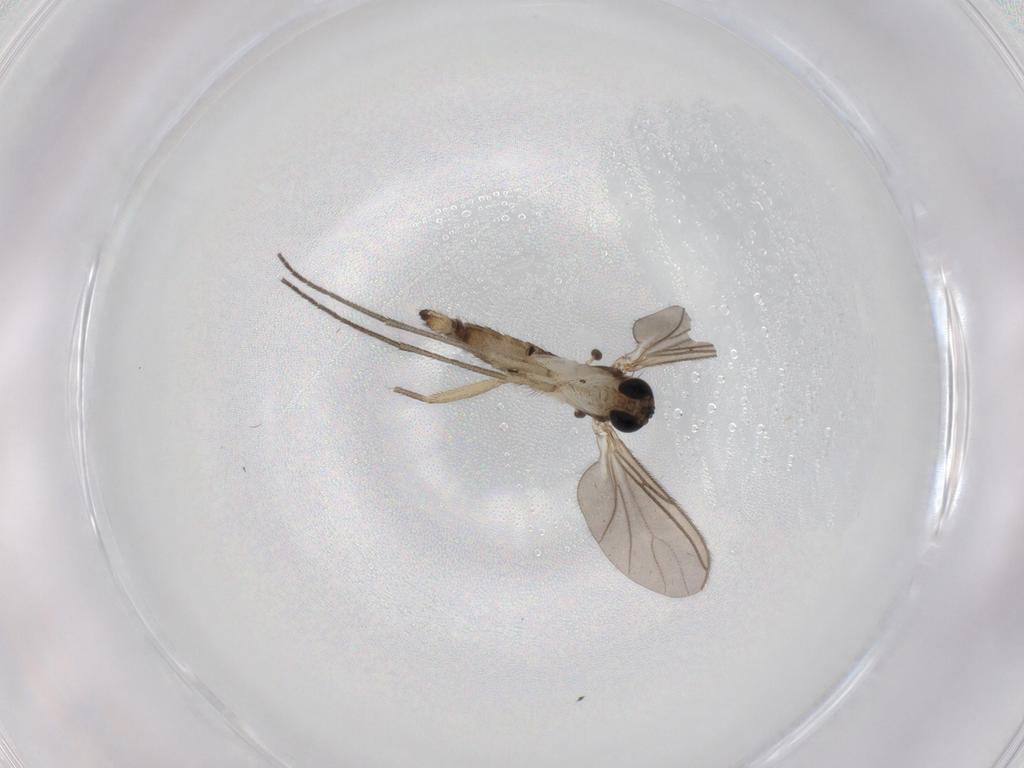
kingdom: Animalia
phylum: Arthropoda
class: Insecta
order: Diptera
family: Sciaridae
